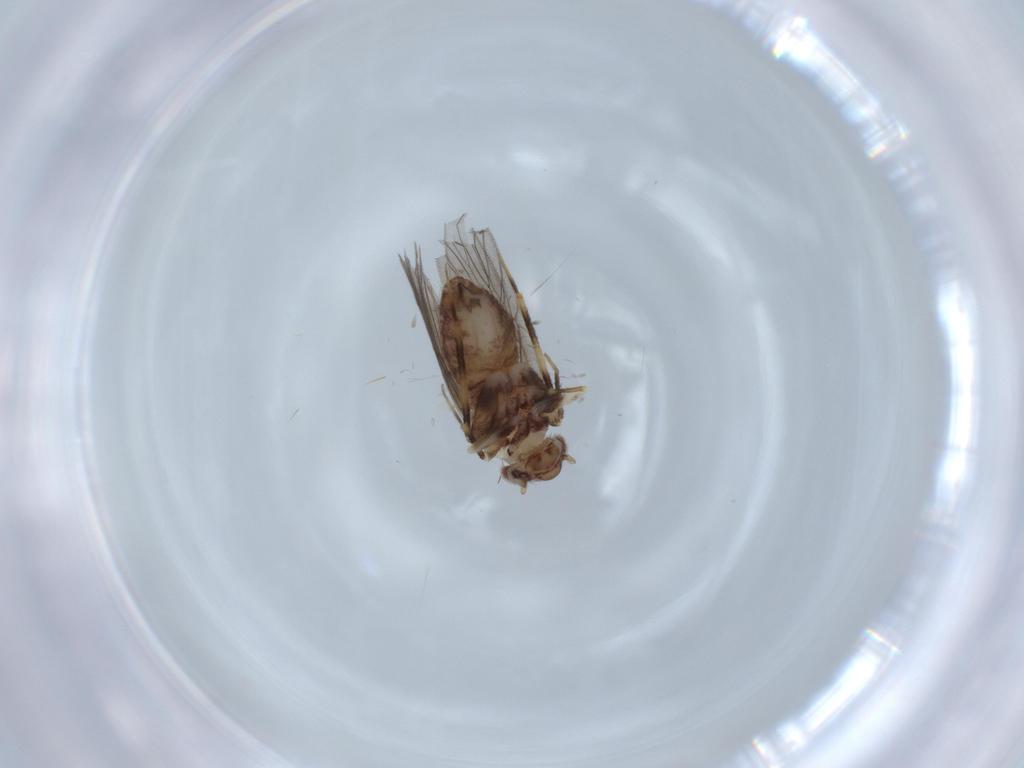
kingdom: Animalia
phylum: Arthropoda
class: Insecta
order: Psocodea
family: Lepidopsocidae
